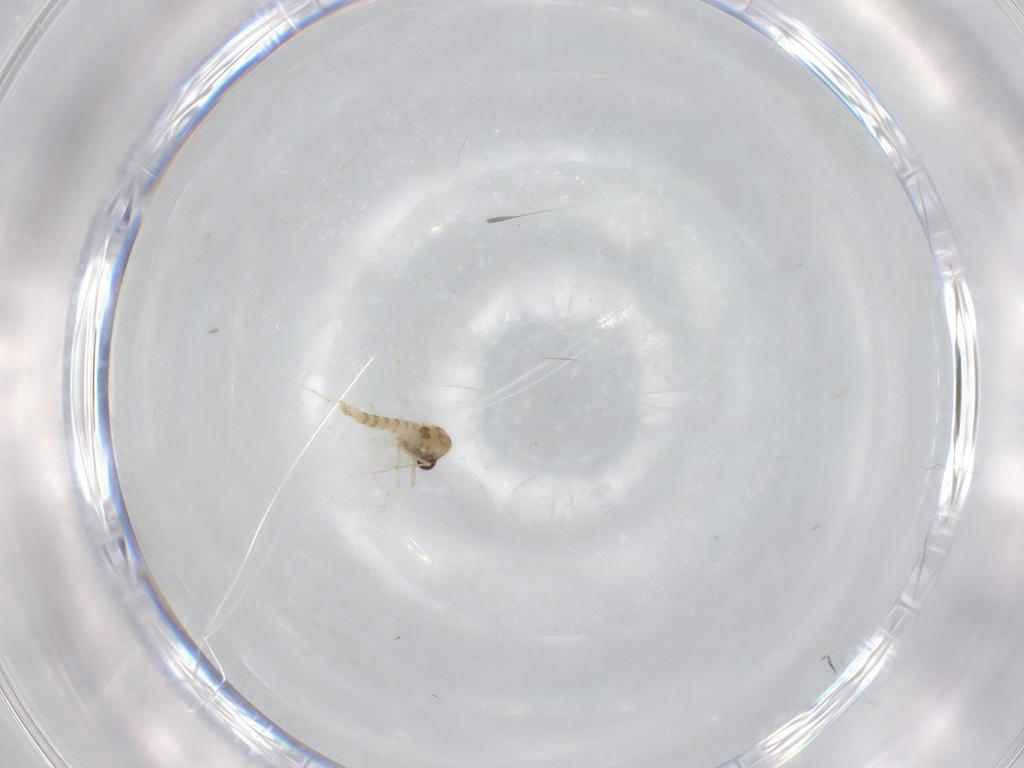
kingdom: Animalia
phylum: Arthropoda
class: Insecta
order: Diptera
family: Chironomidae
